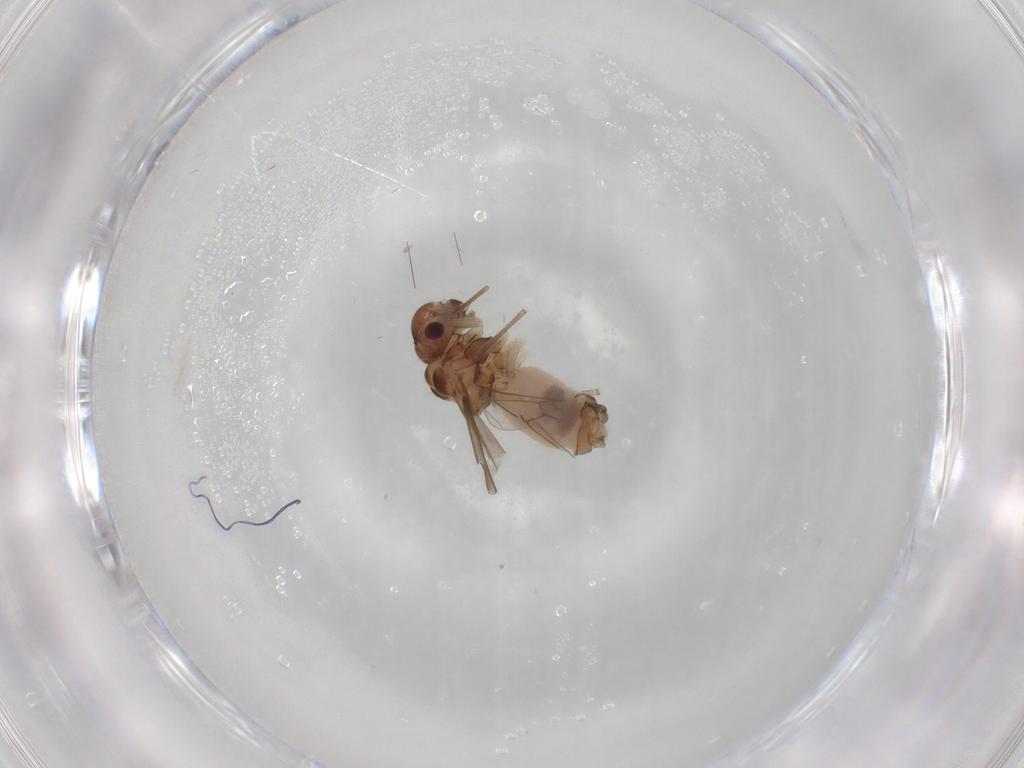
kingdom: Animalia
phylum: Arthropoda
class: Insecta
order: Psocodea
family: Peripsocidae
